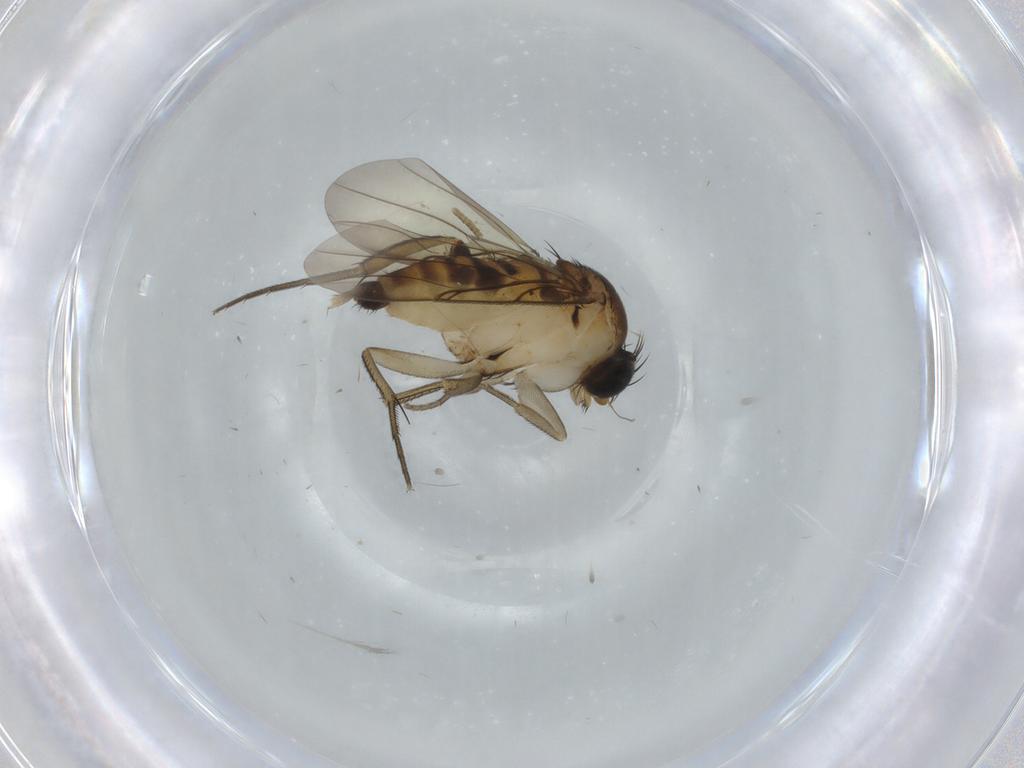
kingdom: Animalia
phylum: Arthropoda
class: Insecta
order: Diptera
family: Phoridae
